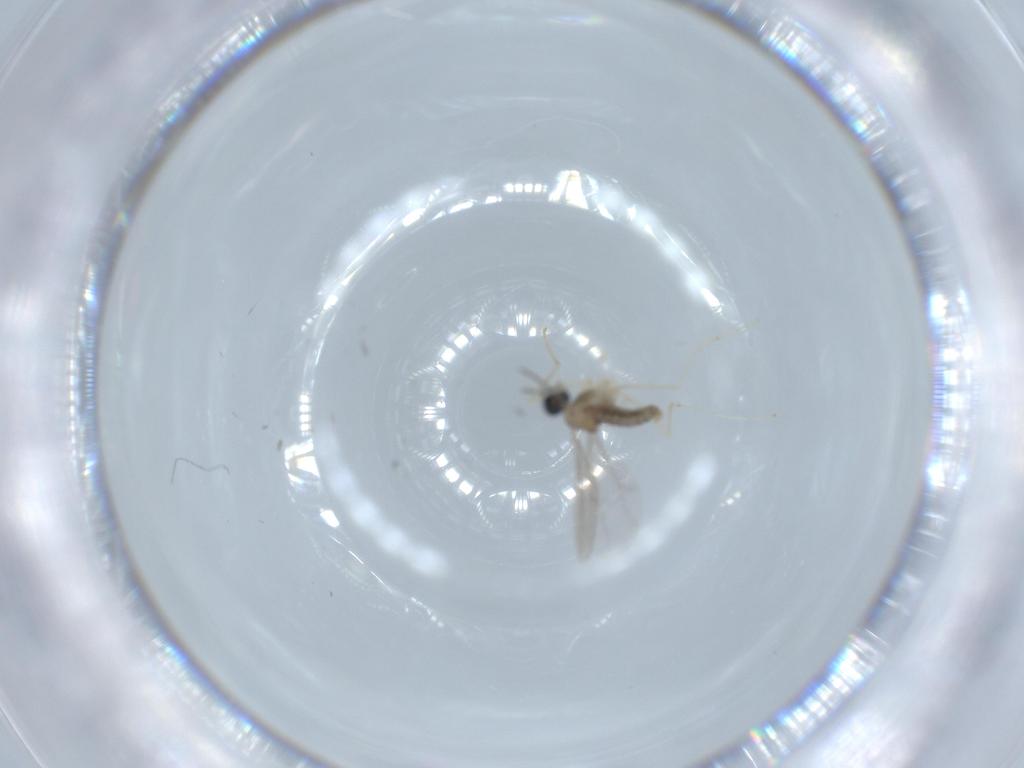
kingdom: Animalia
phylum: Arthropoda
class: Insecta
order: Diptera
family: Cecidomyiidae
